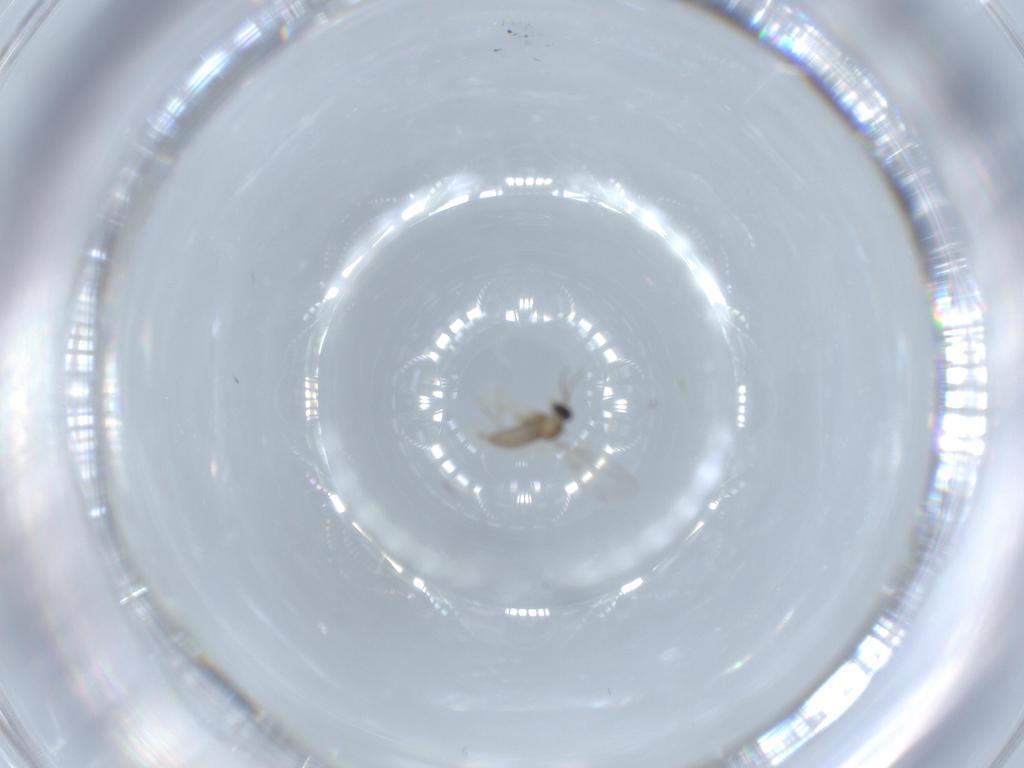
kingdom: Animalia
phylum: Arthropoda
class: Insecta
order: Diptera
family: Cecidomyiidae
